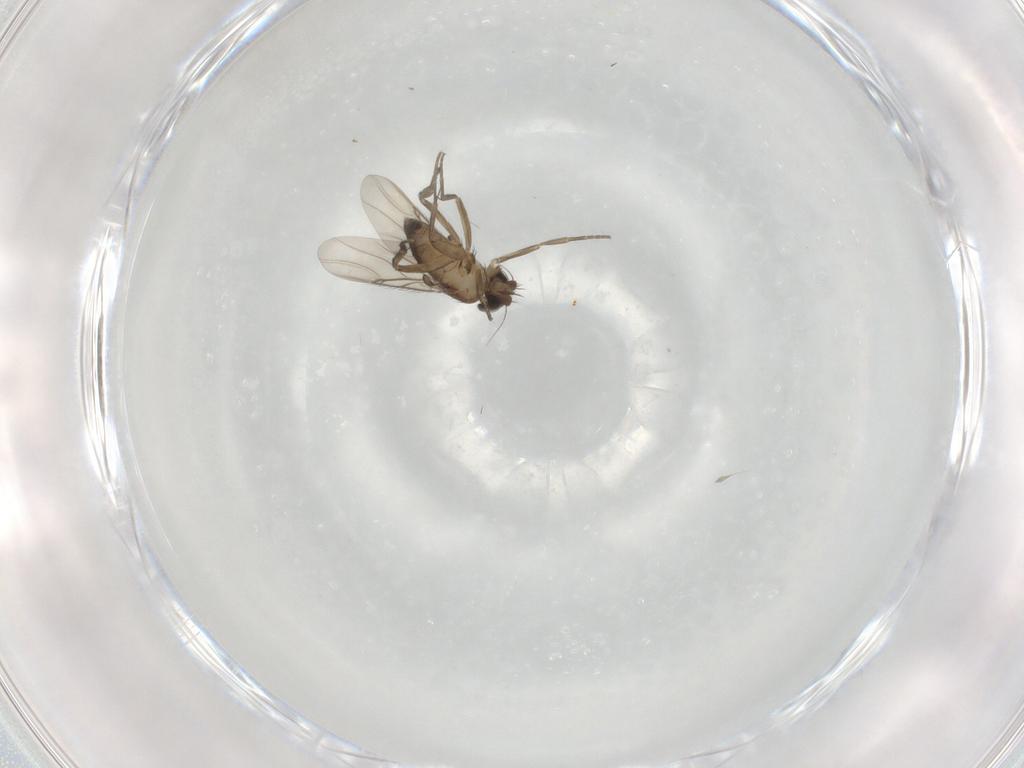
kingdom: Animalia
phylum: Arthropoda
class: Insecta
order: Diptera
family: Phoridae
